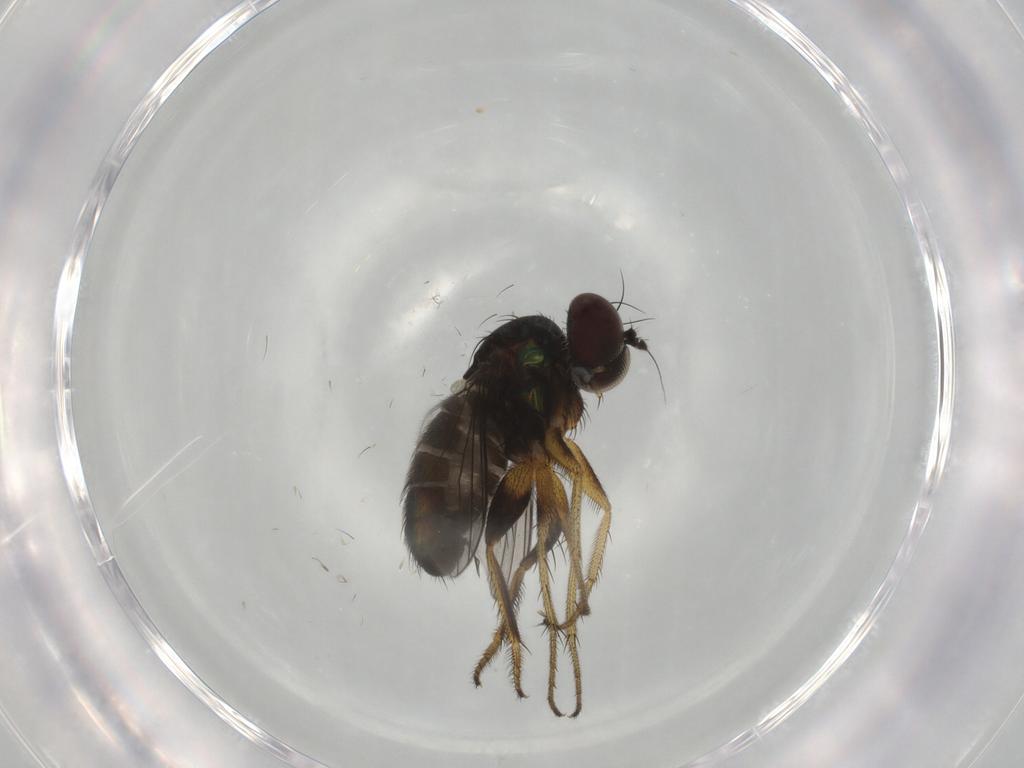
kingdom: Animalia
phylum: Arthropoda
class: Insecta
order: Diptera
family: Dolichopodidae
